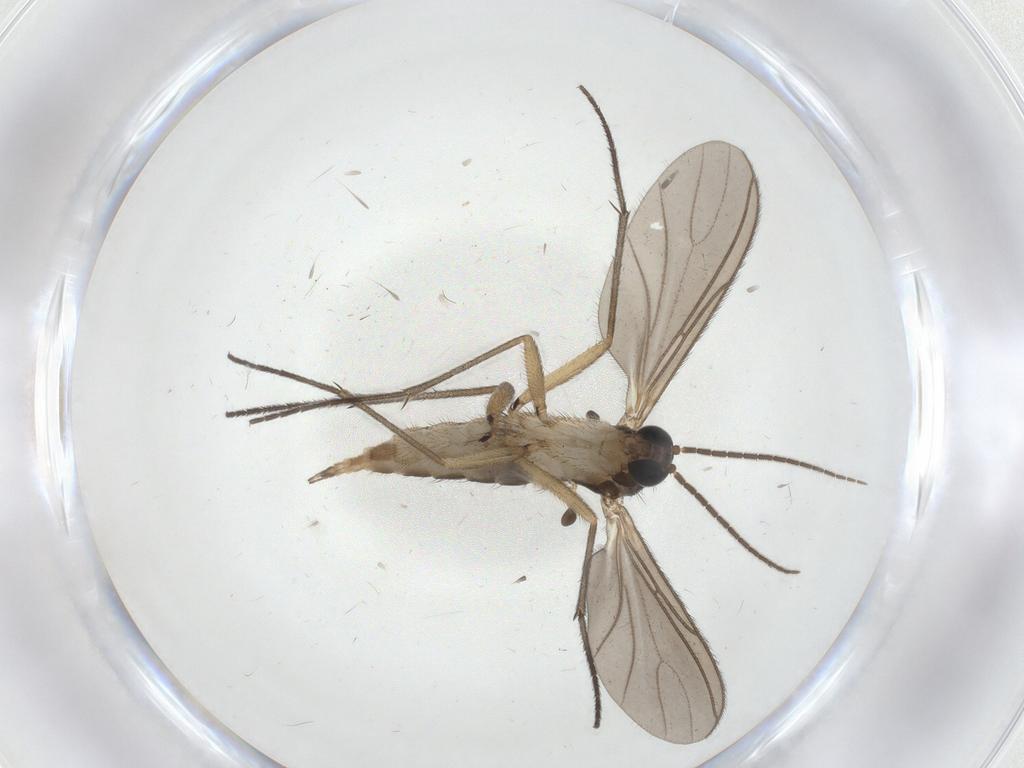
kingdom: Animalia
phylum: Arthropoda
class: Insecta
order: Diptera
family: Sciaridae
